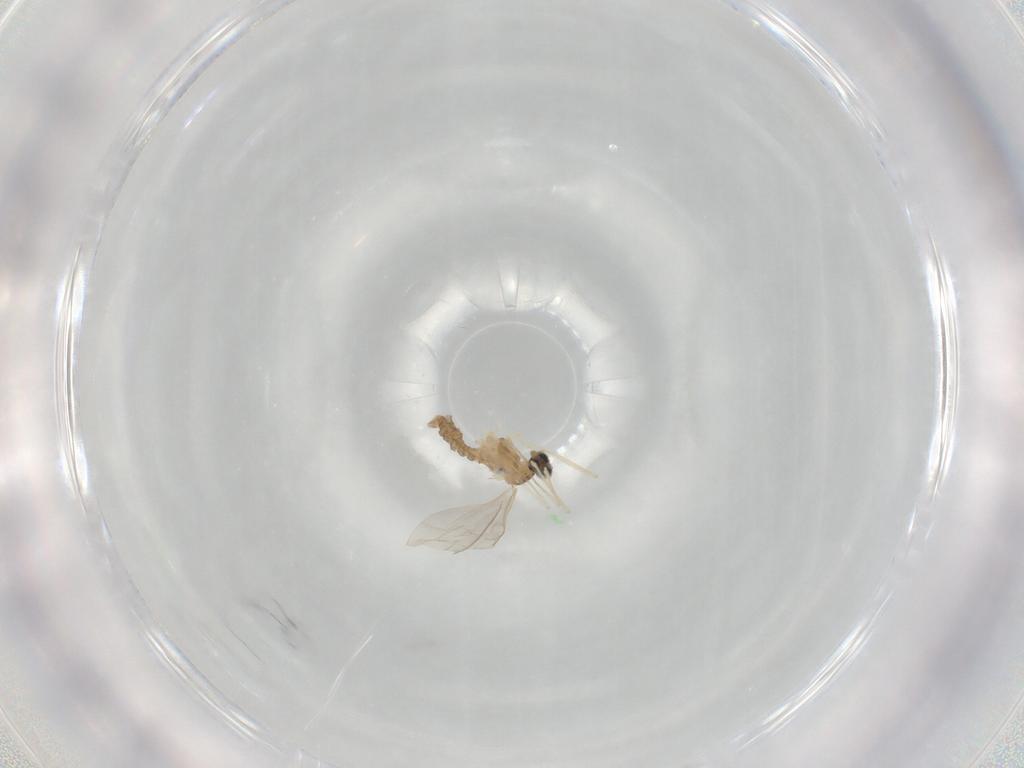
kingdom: Animalia
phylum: Arthropoda
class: Insecta
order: Diptera
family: Cecidomyiidae
